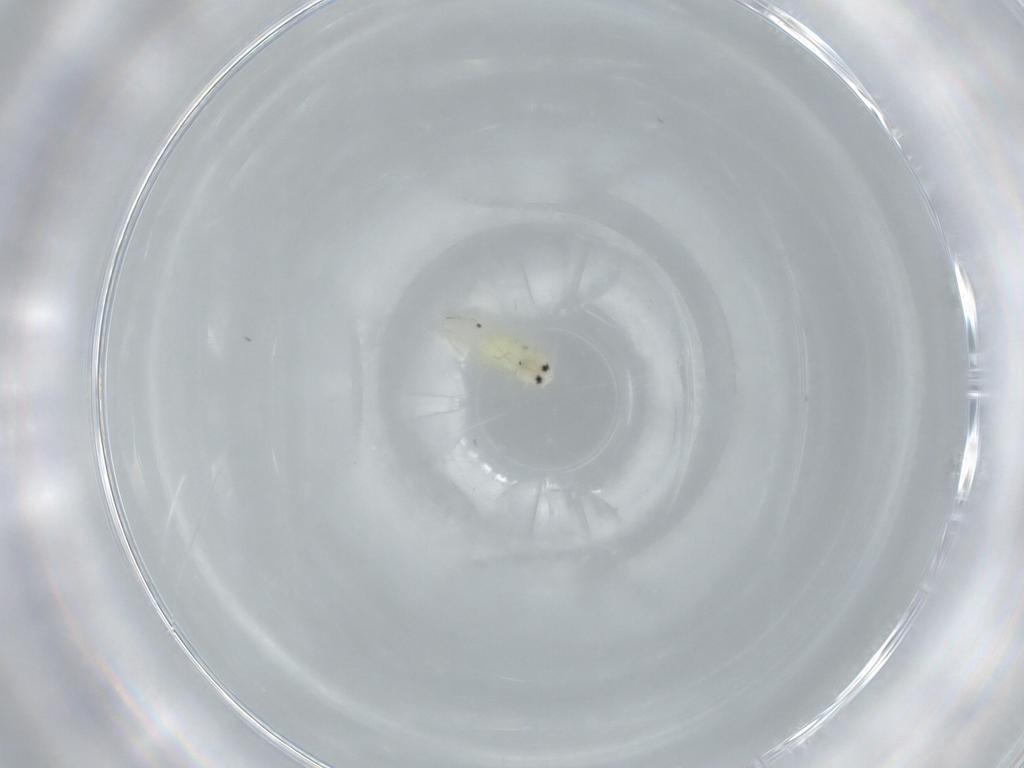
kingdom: Animalia
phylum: Arthropoda
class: Insecta
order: Hemiptera
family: Aleyrodidae
